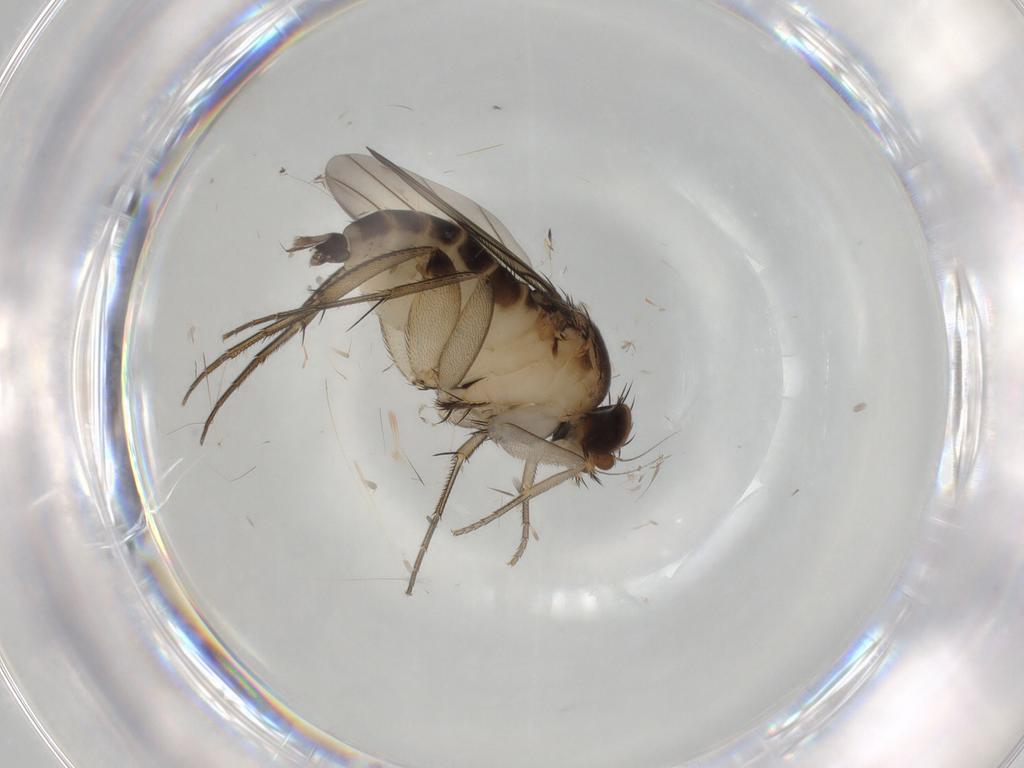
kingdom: Animalia
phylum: Arthropoda
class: Insecta
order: Diptera
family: Phoridae
